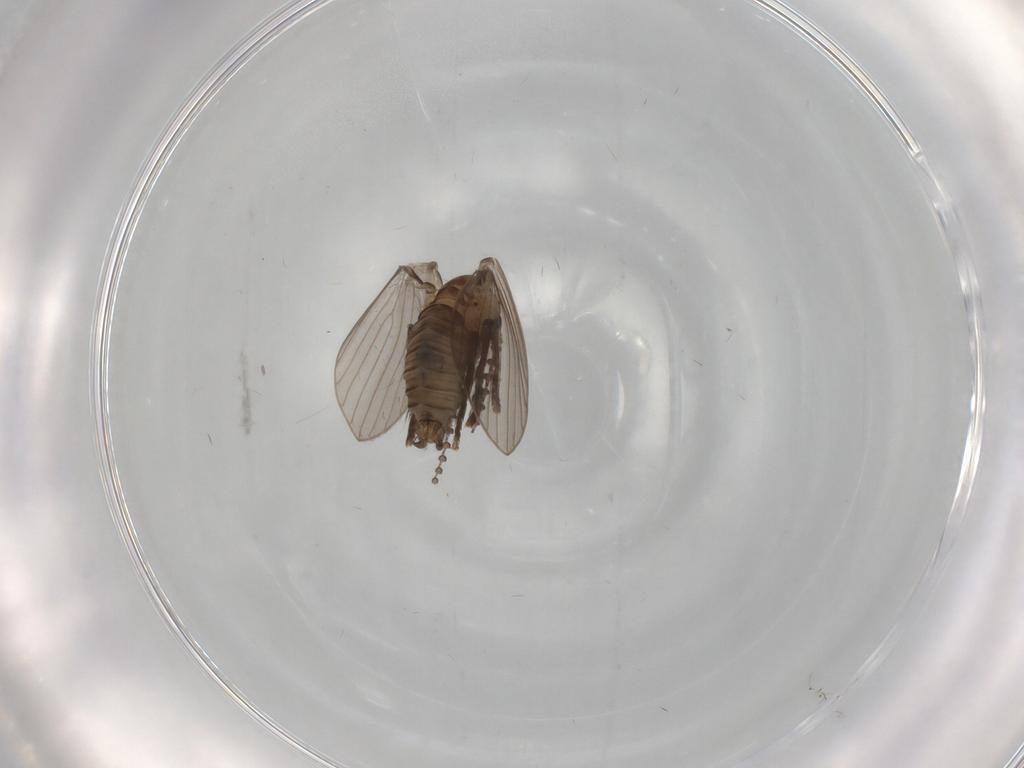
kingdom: Animalia
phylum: Arthropoda
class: Insecta
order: Diptera
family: Psychodidae
